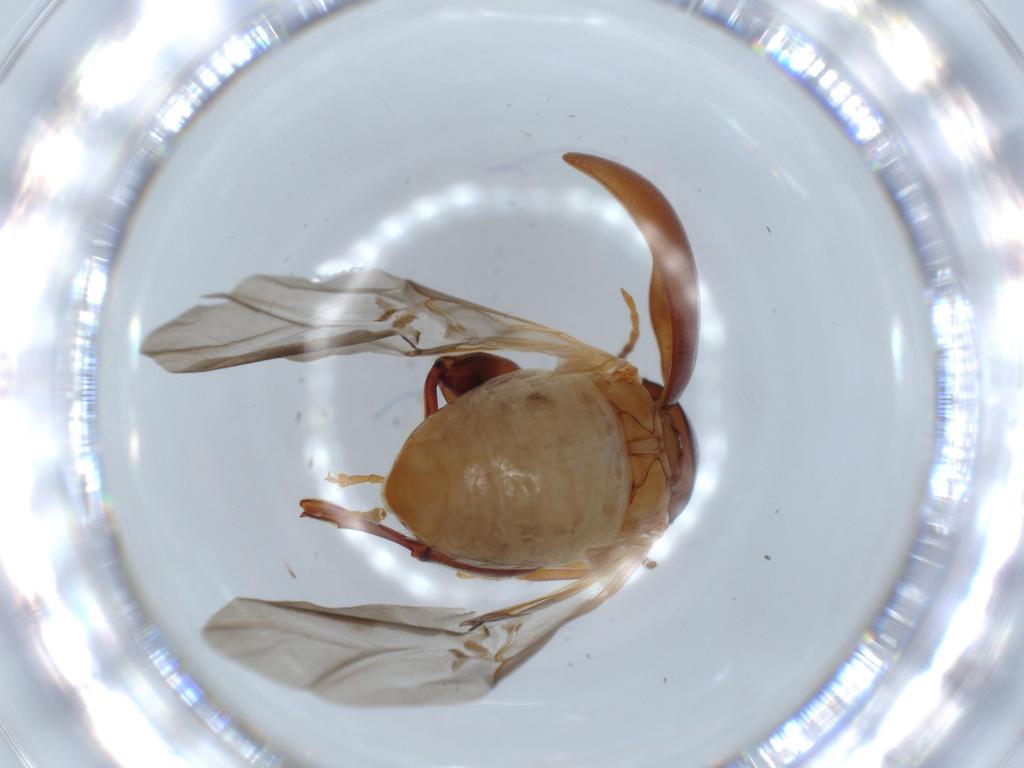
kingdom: Animalia
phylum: Arthropoda
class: Insecta
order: Coleoptera
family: Chrysomelidae
